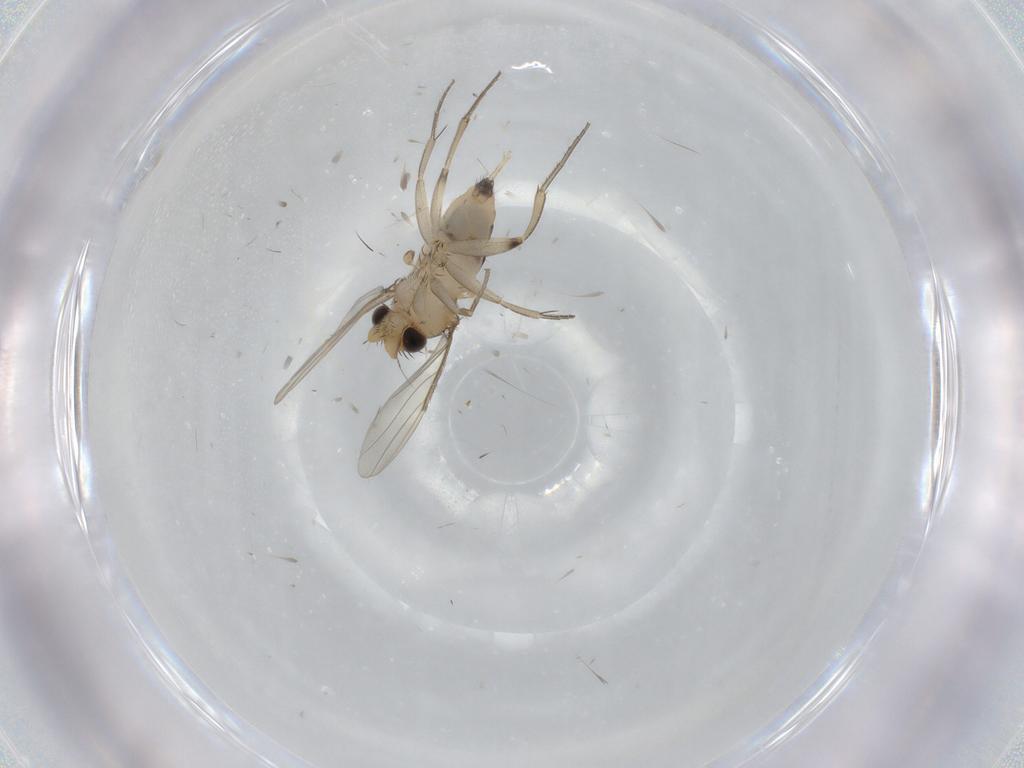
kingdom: Animalia
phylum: Arthropoda
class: Insecta
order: Diptera
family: Phoridae
